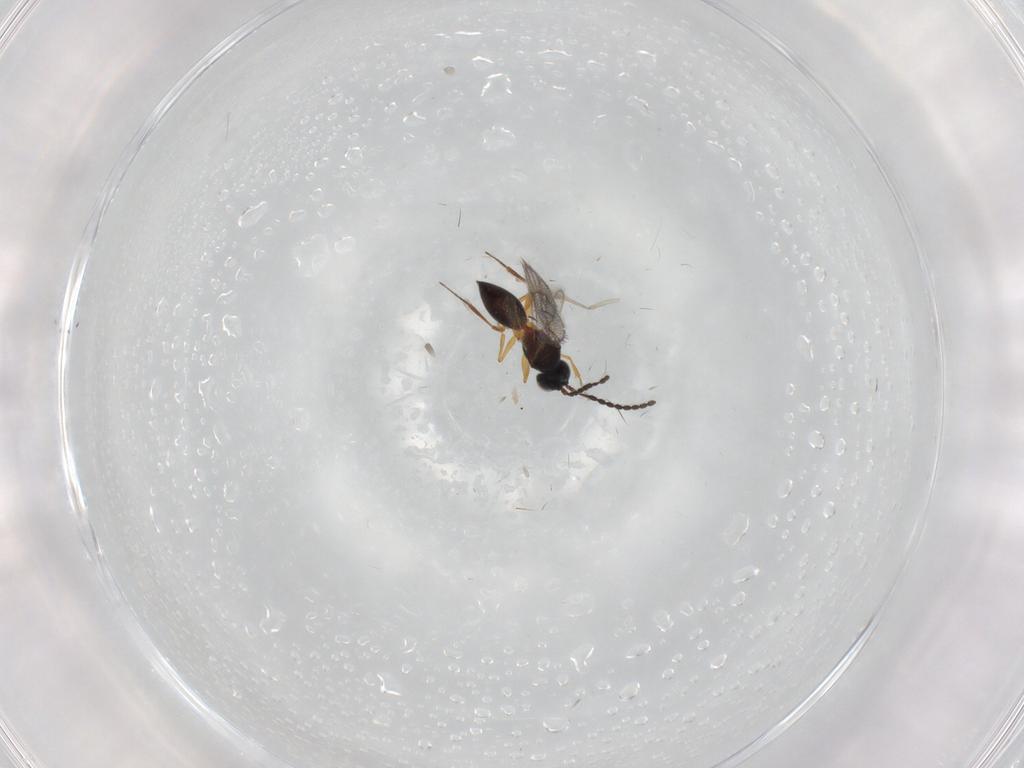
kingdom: Animalia
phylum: Arthropoda
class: Insecta
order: Hymenoptera
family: Figitidae
